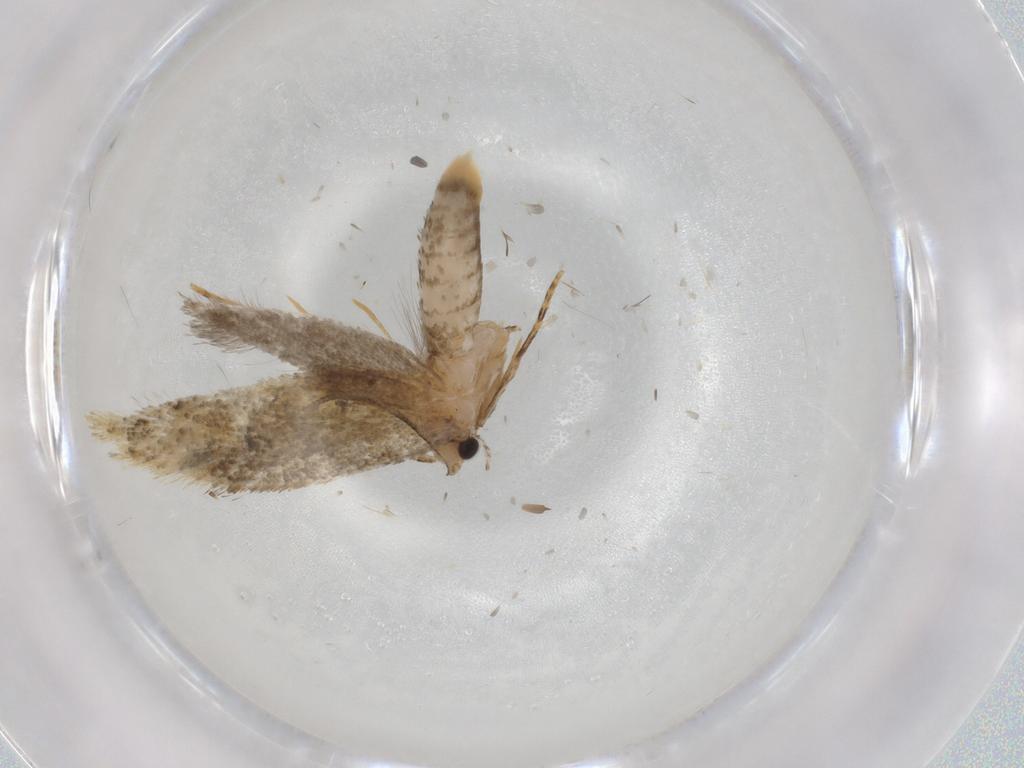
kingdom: Animalia
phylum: Arthropoda
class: Insecta
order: Lepidoptera
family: Tineidae
